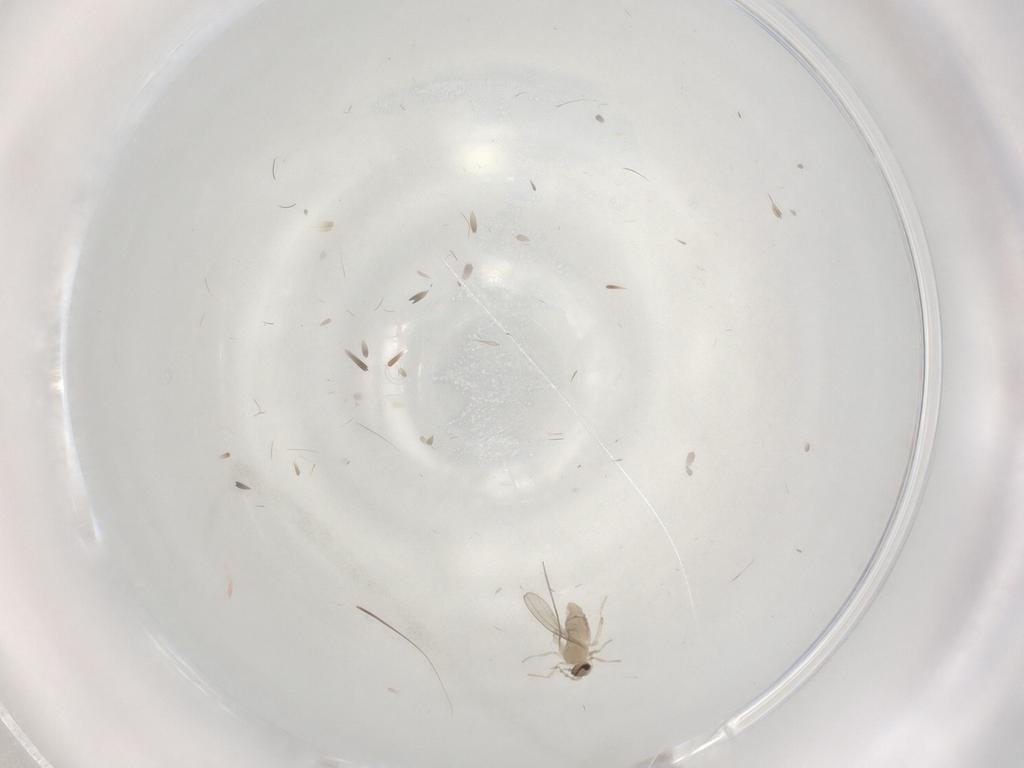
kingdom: Animalia
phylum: Arthropoda
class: Insecta
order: Diptera
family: Cecidomyiidae
